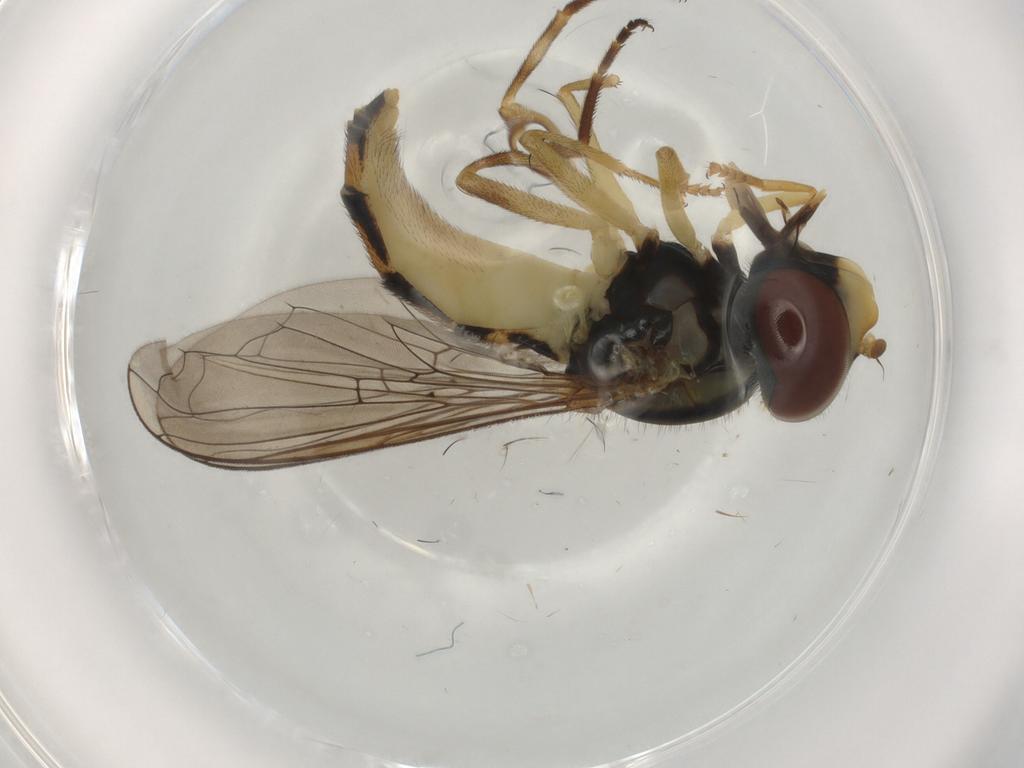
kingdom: Animalia
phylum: Arthropoda
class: Insecta
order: Diptera
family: Syrphidae
